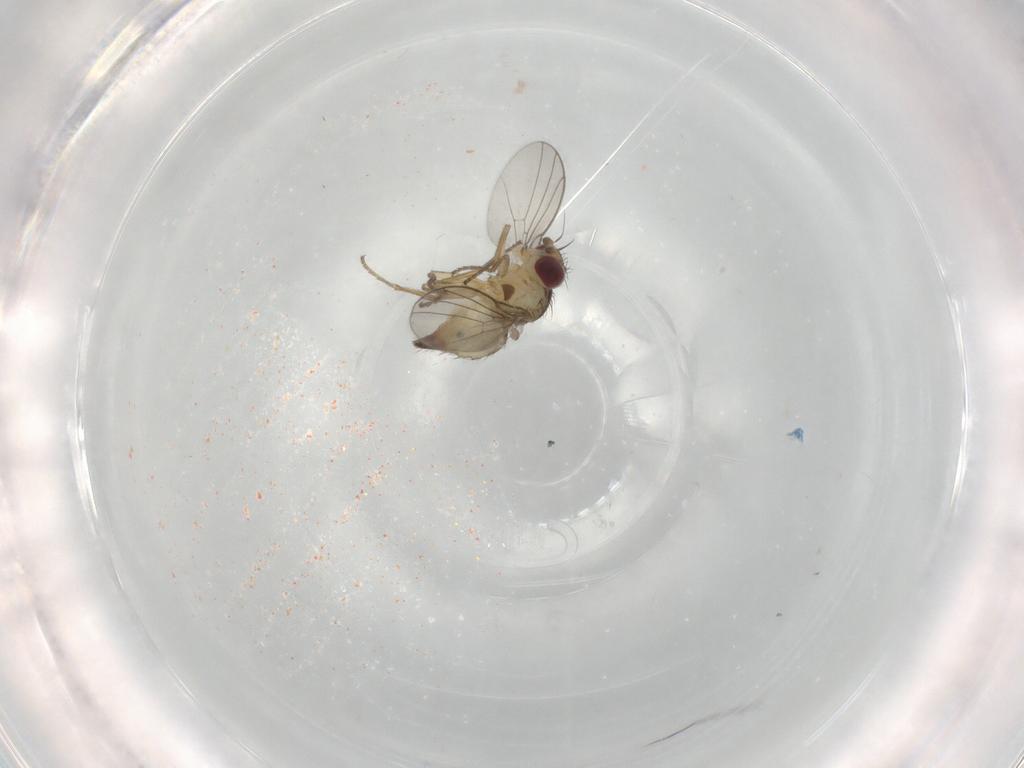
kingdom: Animalia
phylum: Arthropoda
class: Insecta
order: Diptera
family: Agromyzidae
